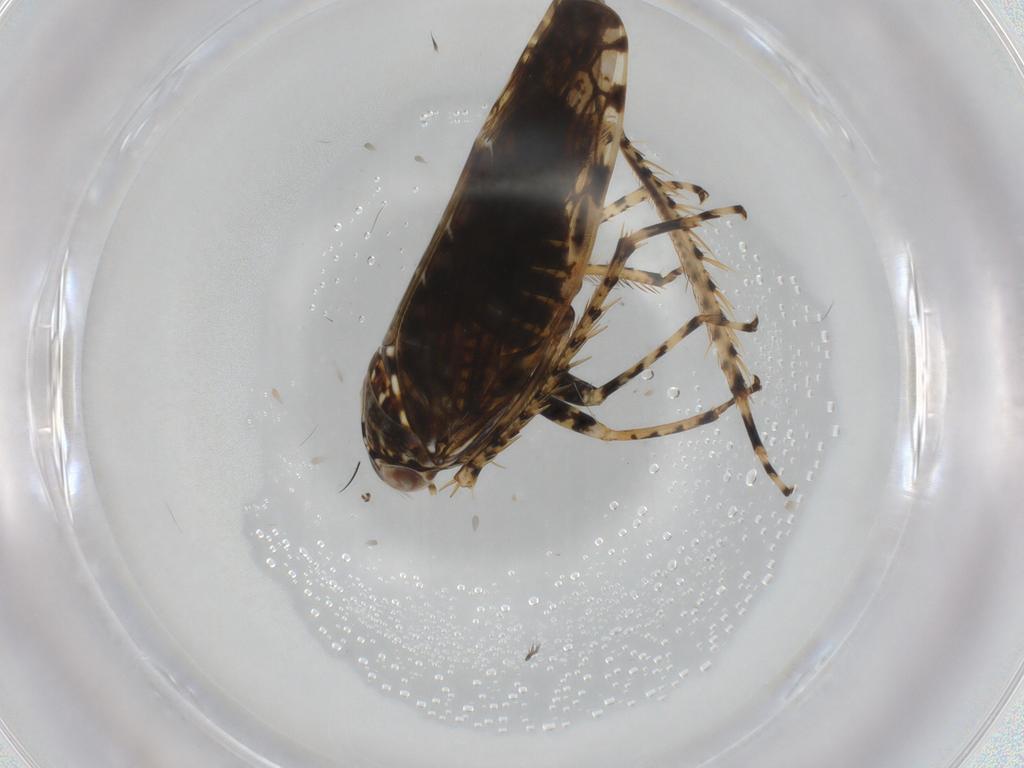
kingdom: Animalia
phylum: Arthropoda
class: Insecta
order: Hemiptera
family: Cicadellidae
